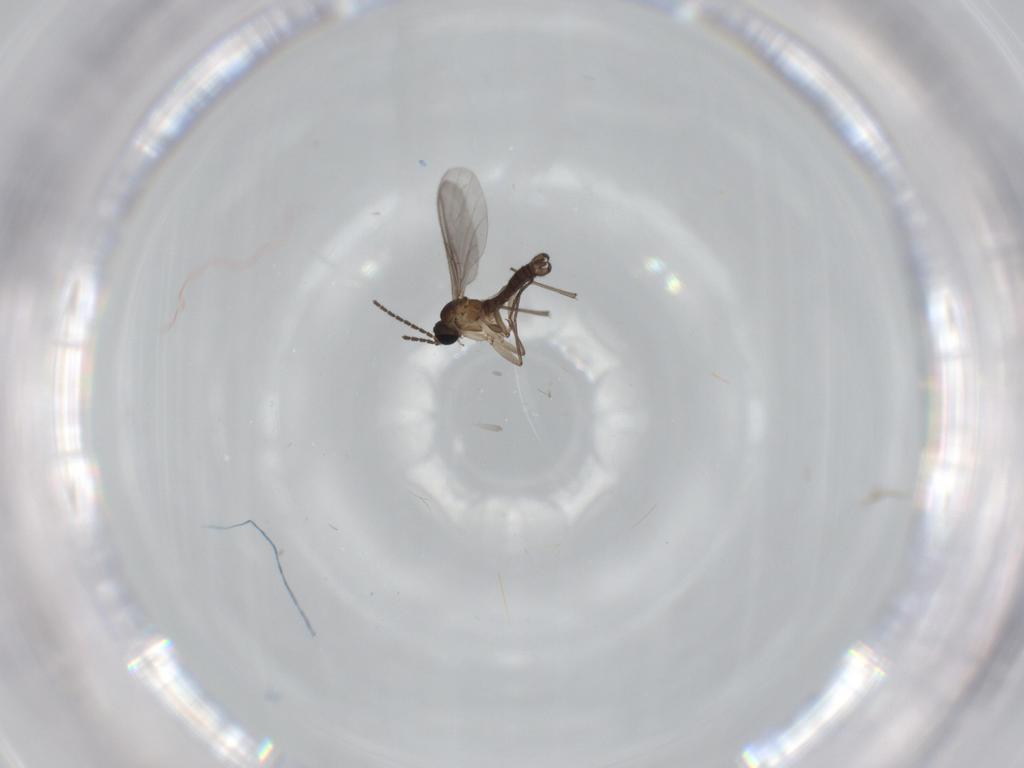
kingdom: Animalia
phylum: Arthropoda
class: Insecta
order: Diptera
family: Sciaridae
